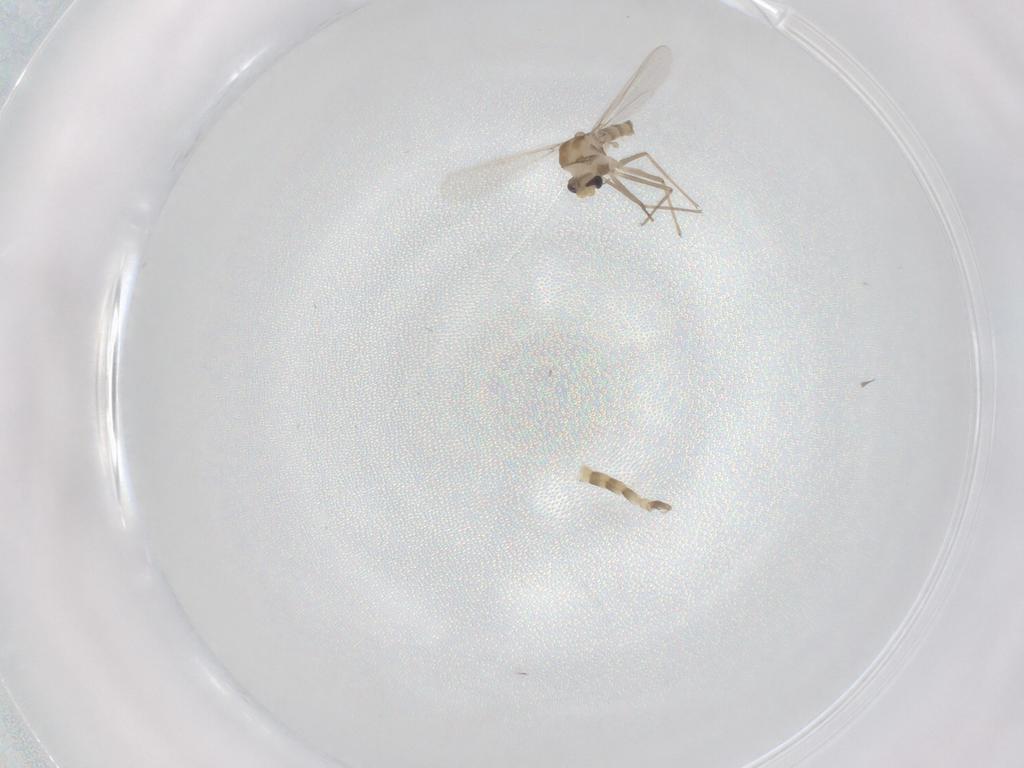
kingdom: Animalia
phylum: Arthropoda
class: Insecta
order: Diptera
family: Chironomidae
